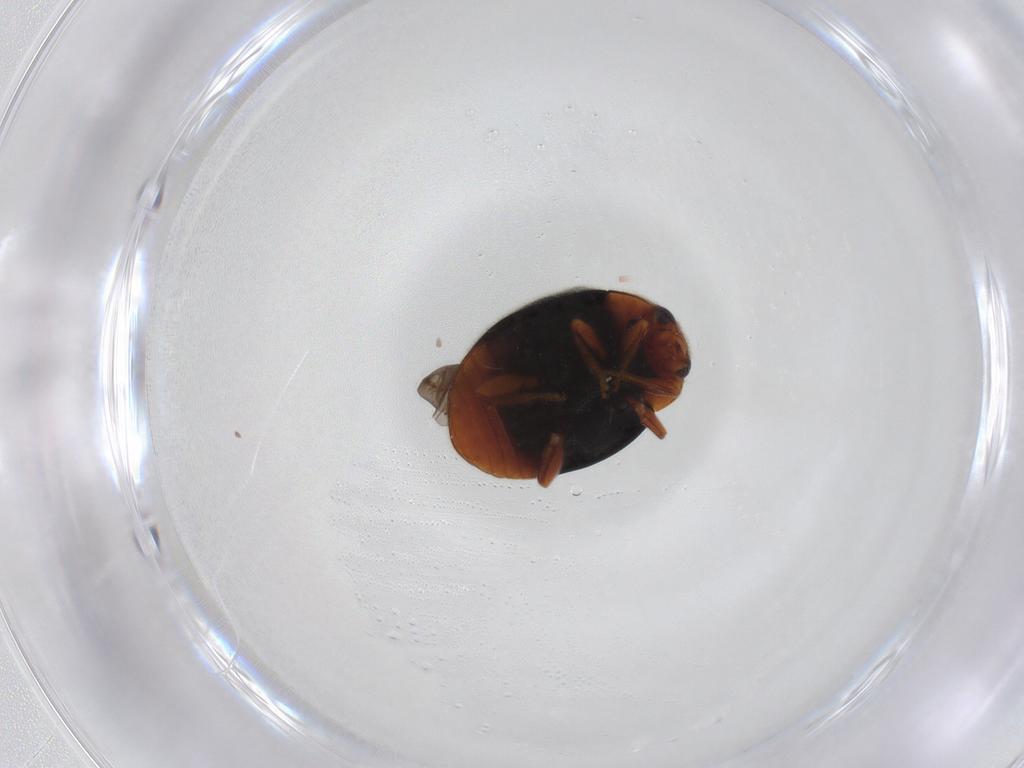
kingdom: Animalia
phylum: Arthropoda
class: Insecta
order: Coleoptera
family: Coccinellidae
